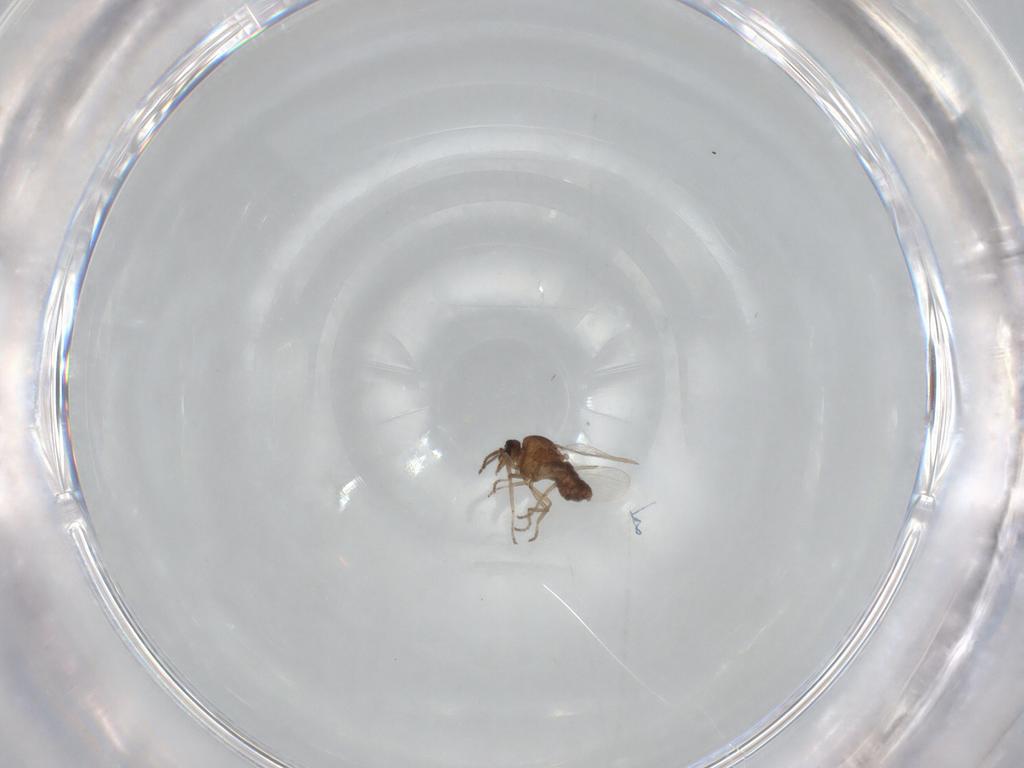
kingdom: Animalia
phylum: Arthropoda
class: Insecta
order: Diptera
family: Ceratopogonidae
